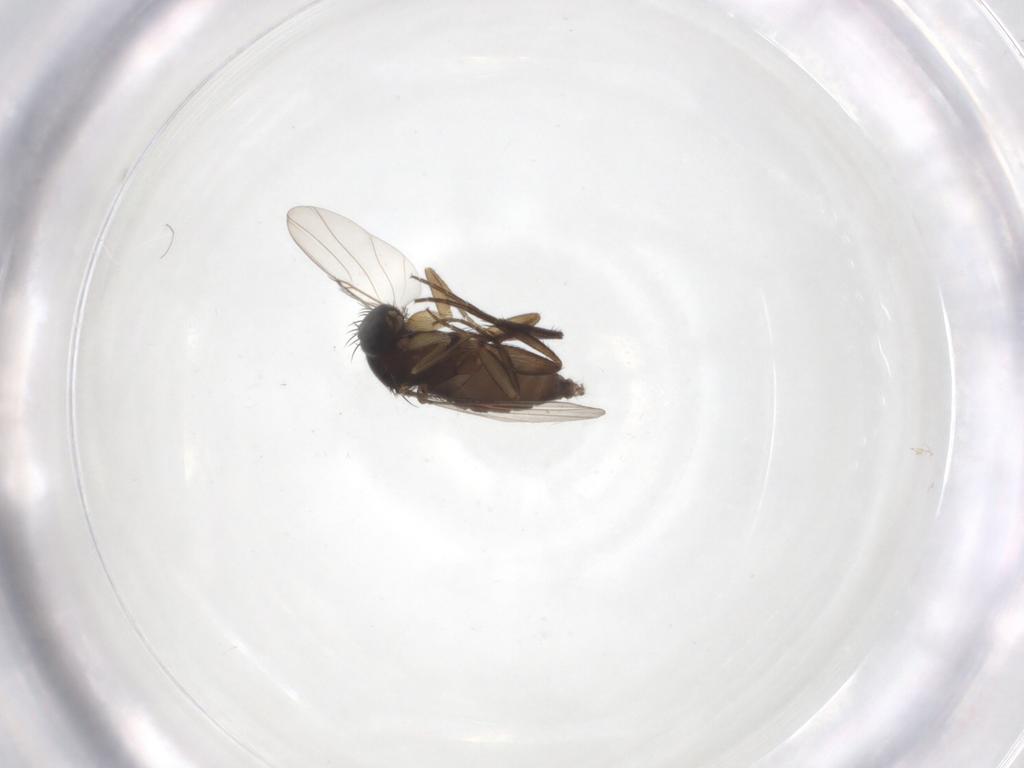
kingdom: Animalia
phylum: Arthropoda
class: Insecta
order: Diptera
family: Phoridae
